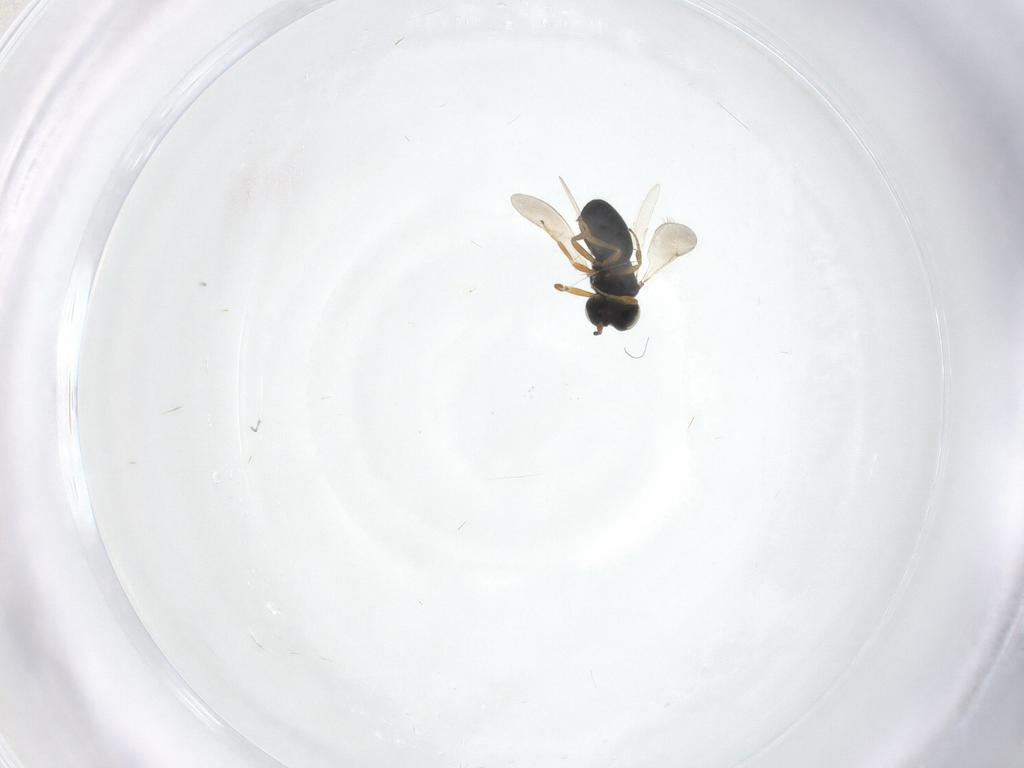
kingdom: Animalia
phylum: Arthropoda
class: Insecta
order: Hymenoptera
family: Scelionidae
